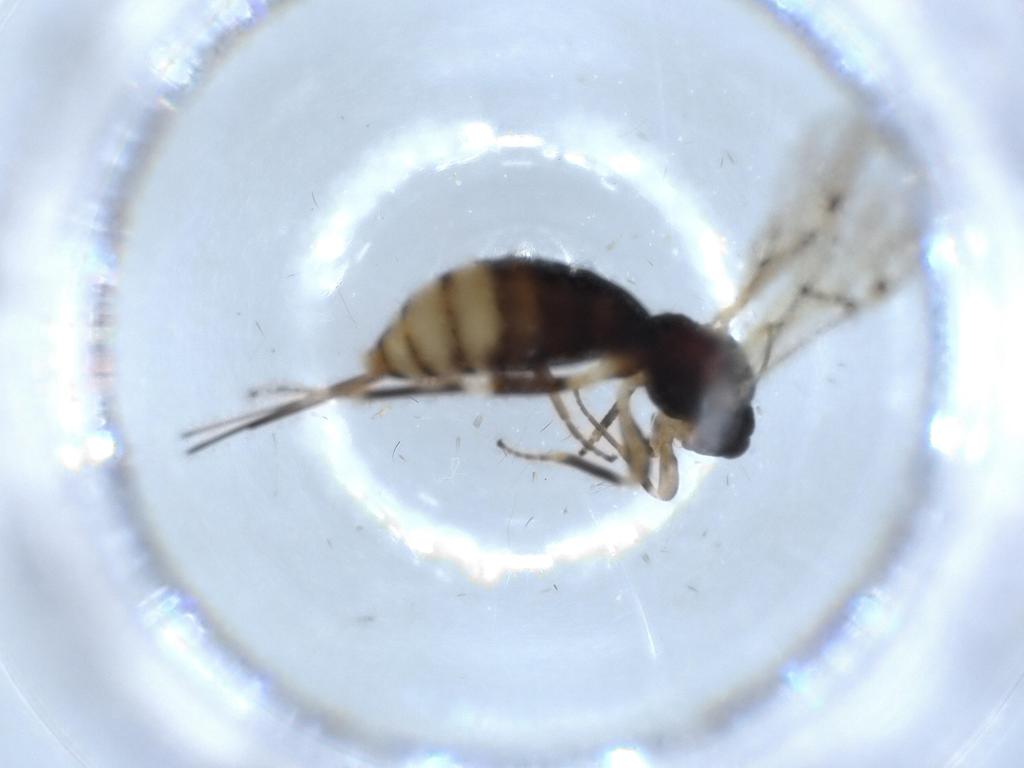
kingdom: Animalia
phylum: Arthropoda
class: Insecta
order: Hymenoptera
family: Braconidae
